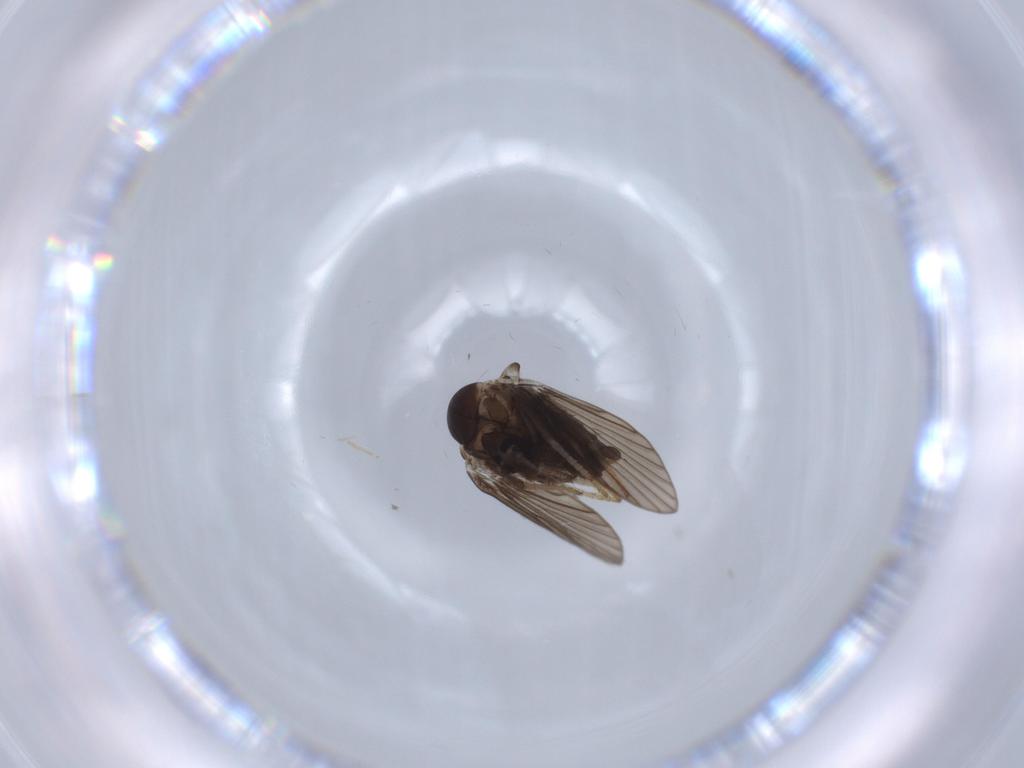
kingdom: Animalia
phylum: Arthropoda
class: Insecta
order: Diptera
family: Psychodidae
